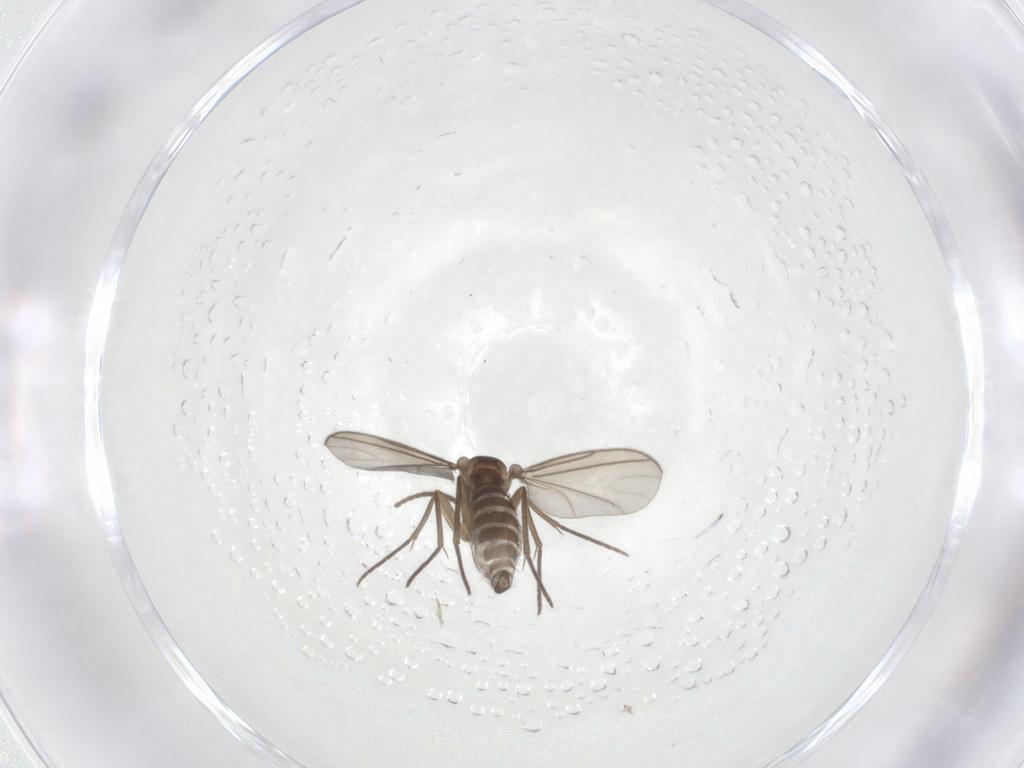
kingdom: Animalia
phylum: Arthropoda
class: Insecta
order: Diptera
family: Sciaridae
